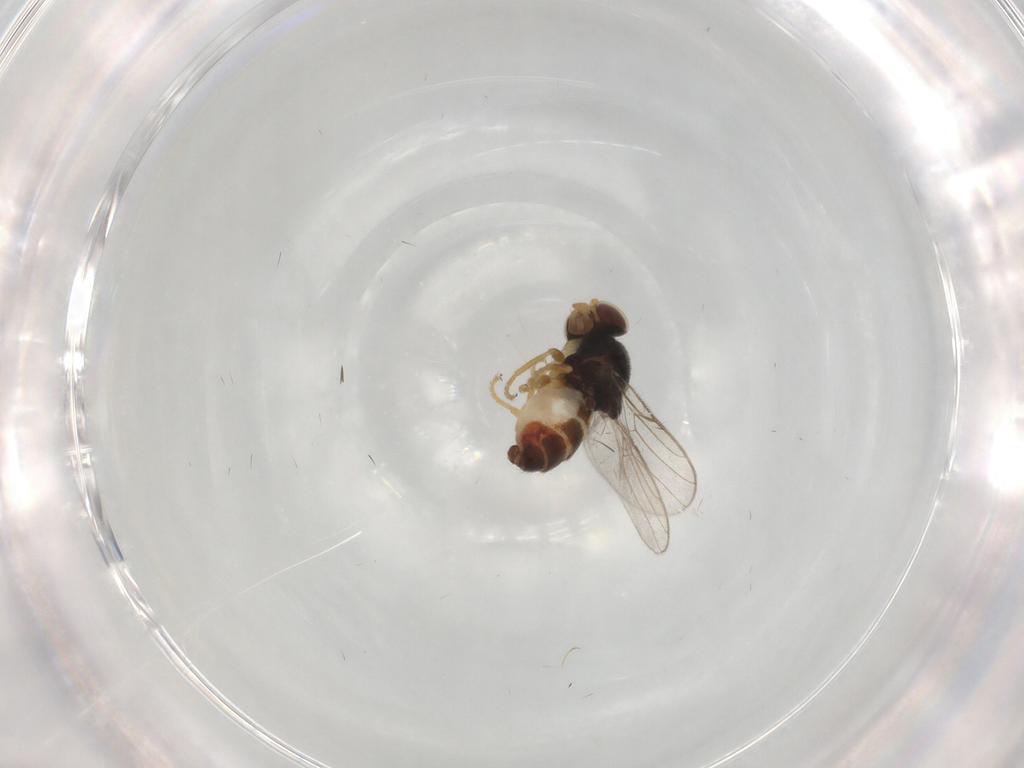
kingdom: Animalia
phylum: Arthropoda
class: Insecta
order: Diptera
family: Chloropidae
